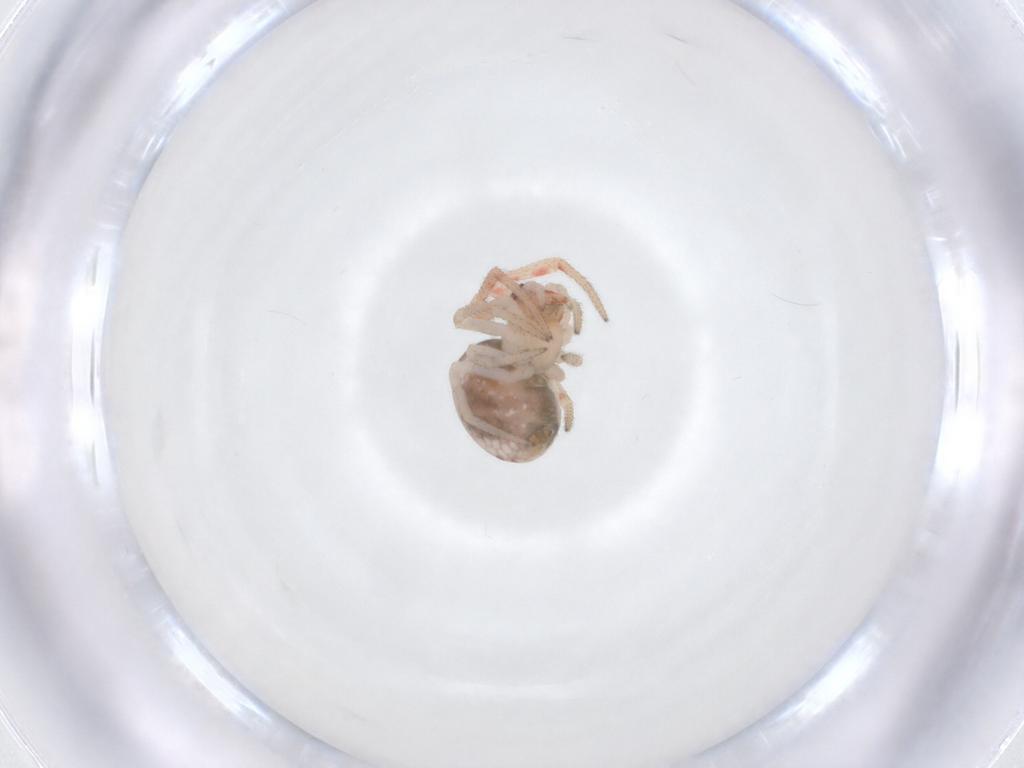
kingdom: Animalia
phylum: Arthropoda
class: Arachnida
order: Araneae
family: Theridiidae
